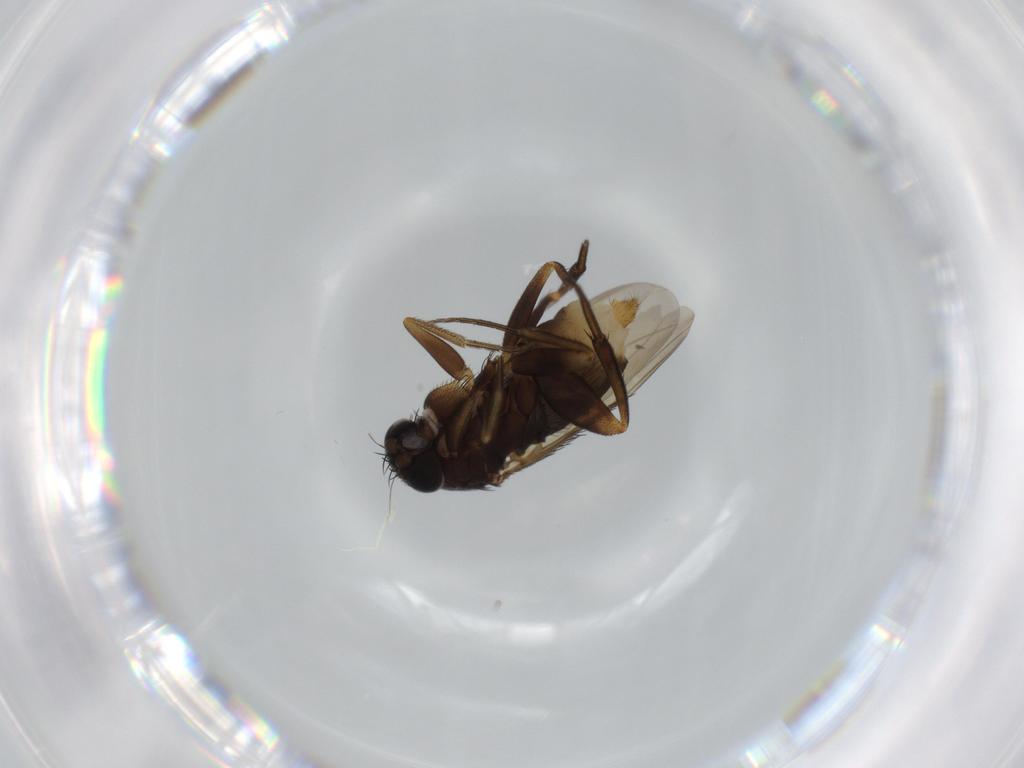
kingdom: Animalia
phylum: Arthropoda
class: Insecta
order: Diptera
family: Phoridae
